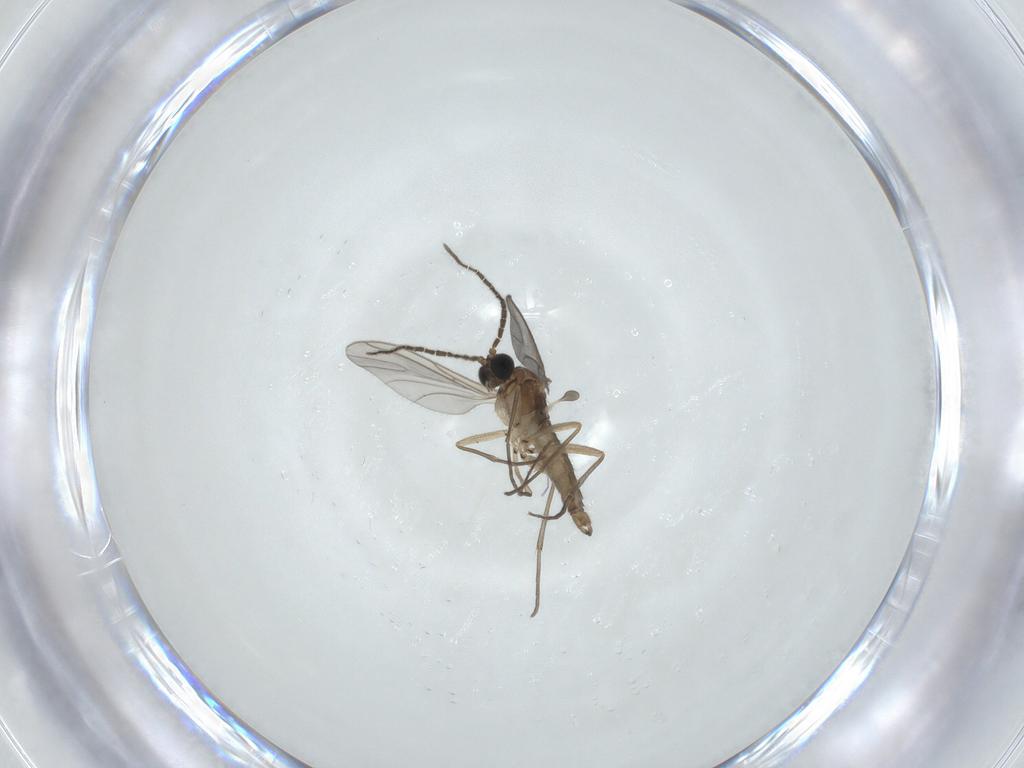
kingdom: Animalia
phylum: Arthropoda
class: Insecta
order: Diptera
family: Sciaridae
